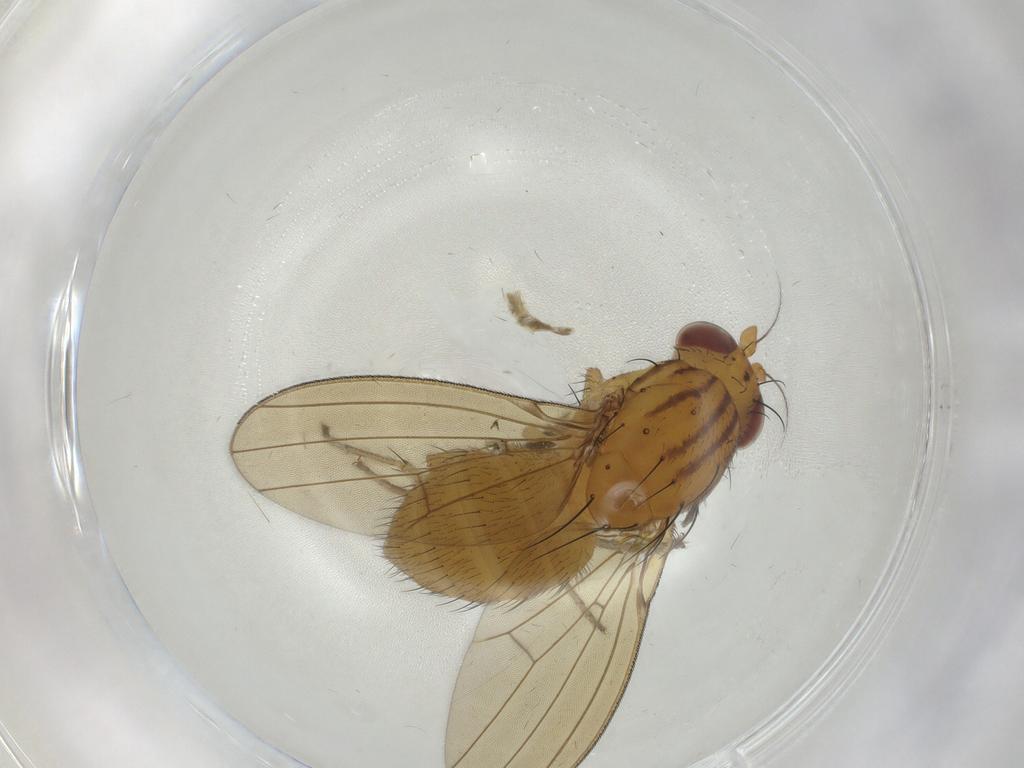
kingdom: Animalia
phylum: Arthropoda
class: Insecta
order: Diptera
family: Lauxaniidae
